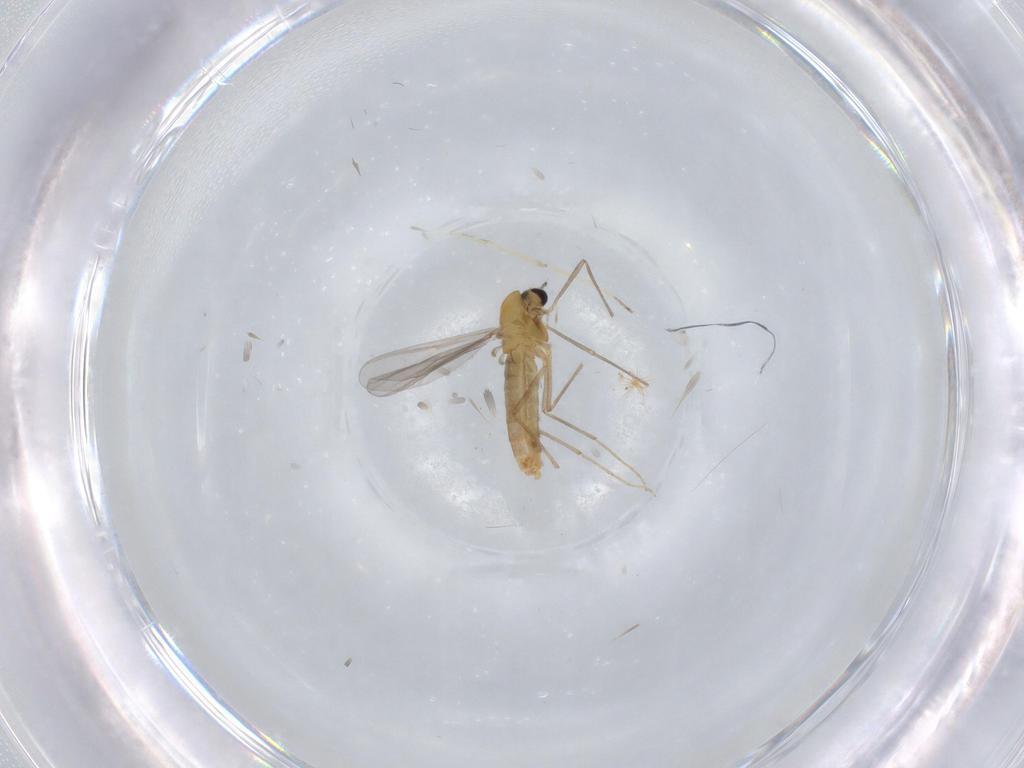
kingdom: Animalia
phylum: Arthropoda
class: Insecta
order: Diptera
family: Chironomidae
